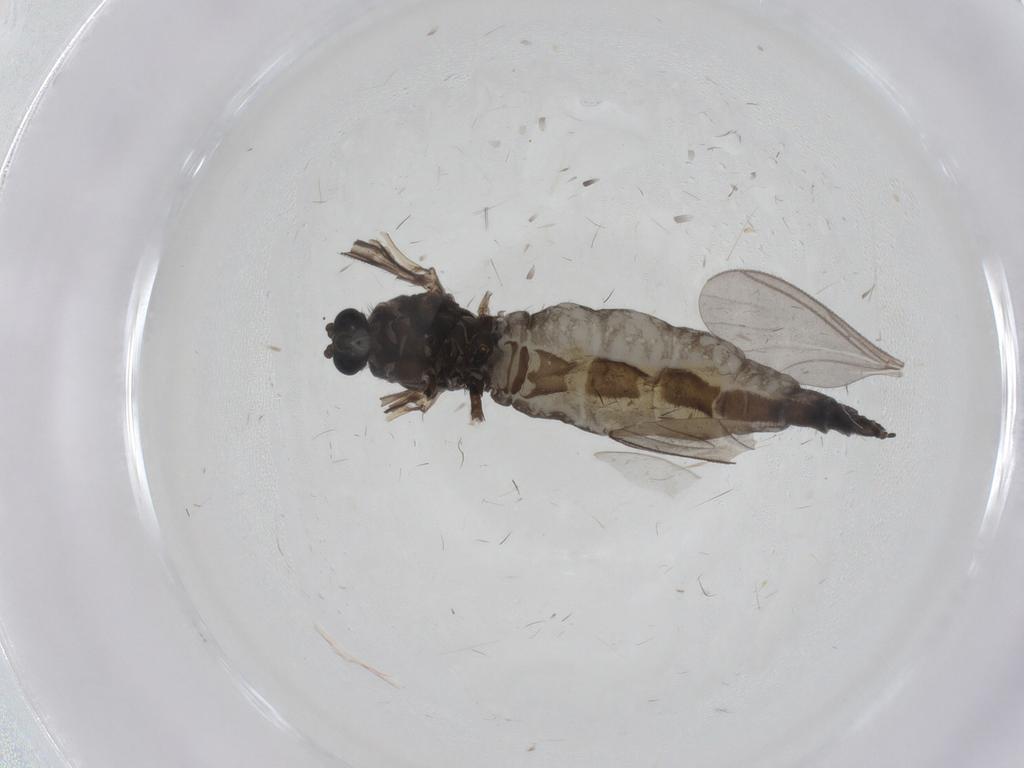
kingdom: Animalia
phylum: Arthropoda
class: Insecta
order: Diptera
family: Sciaridae
